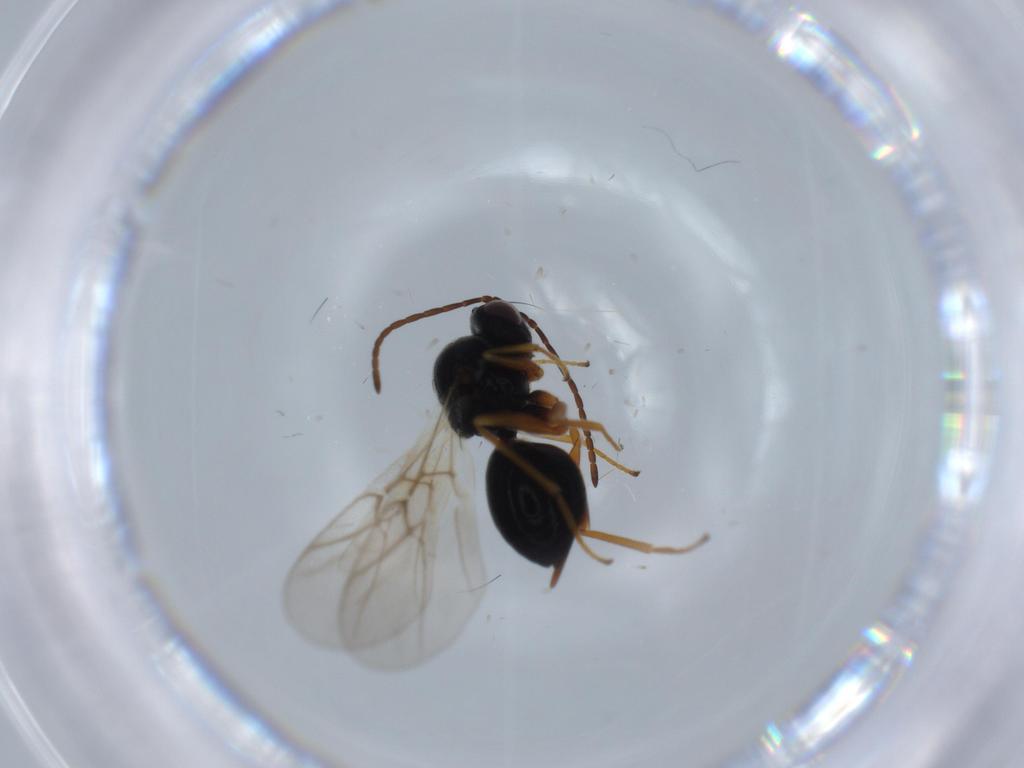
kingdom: Animalia
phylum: Arthropoda
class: Insecta
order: Hymenoptera
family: Cynipidae
